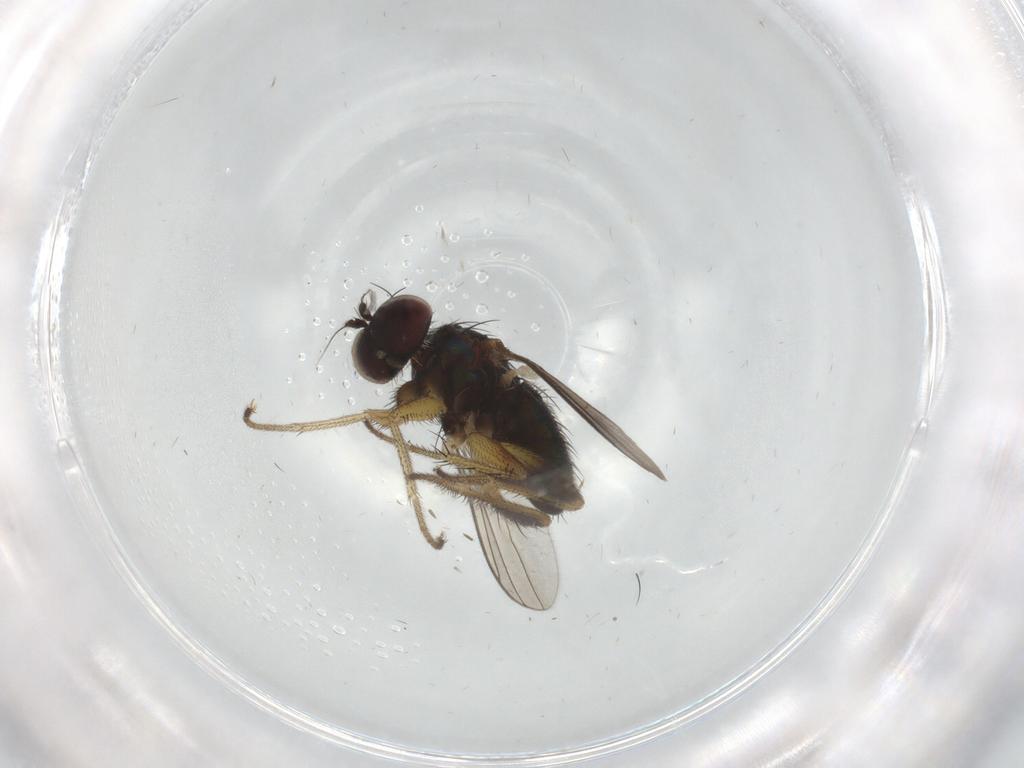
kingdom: Animalia
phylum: Arthropoda
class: Insecta
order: Diptera
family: Dolichopodidae
